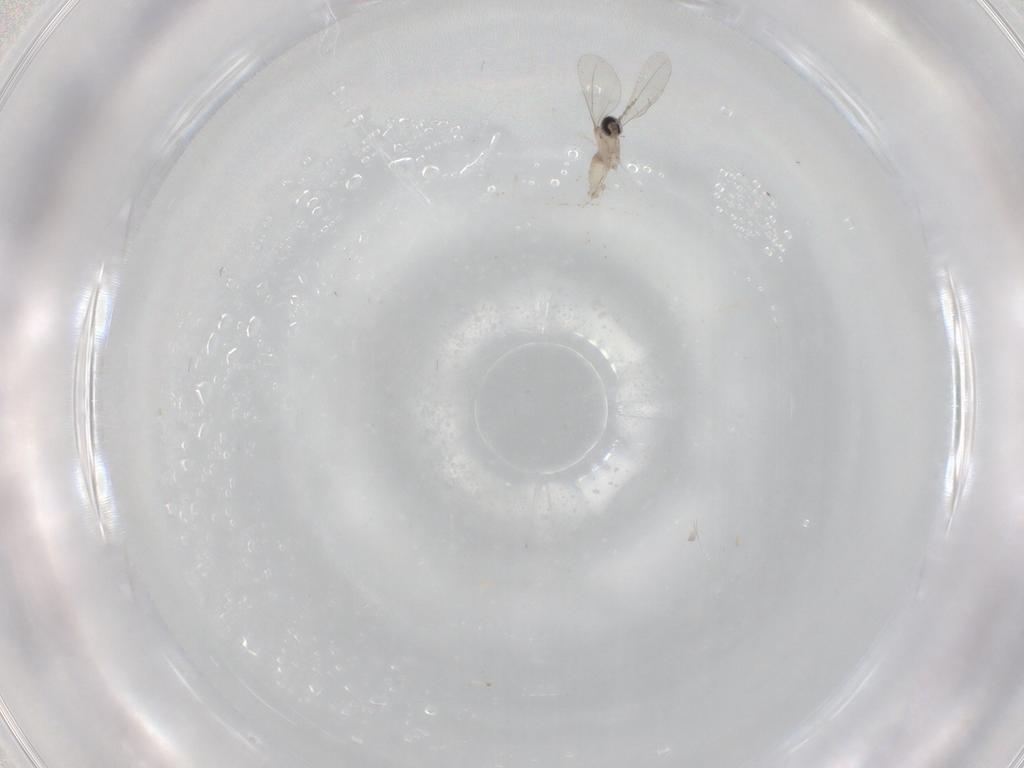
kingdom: Animalia
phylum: Arthropoda
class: Insecta
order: Diptera
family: Cecidomyiidae
